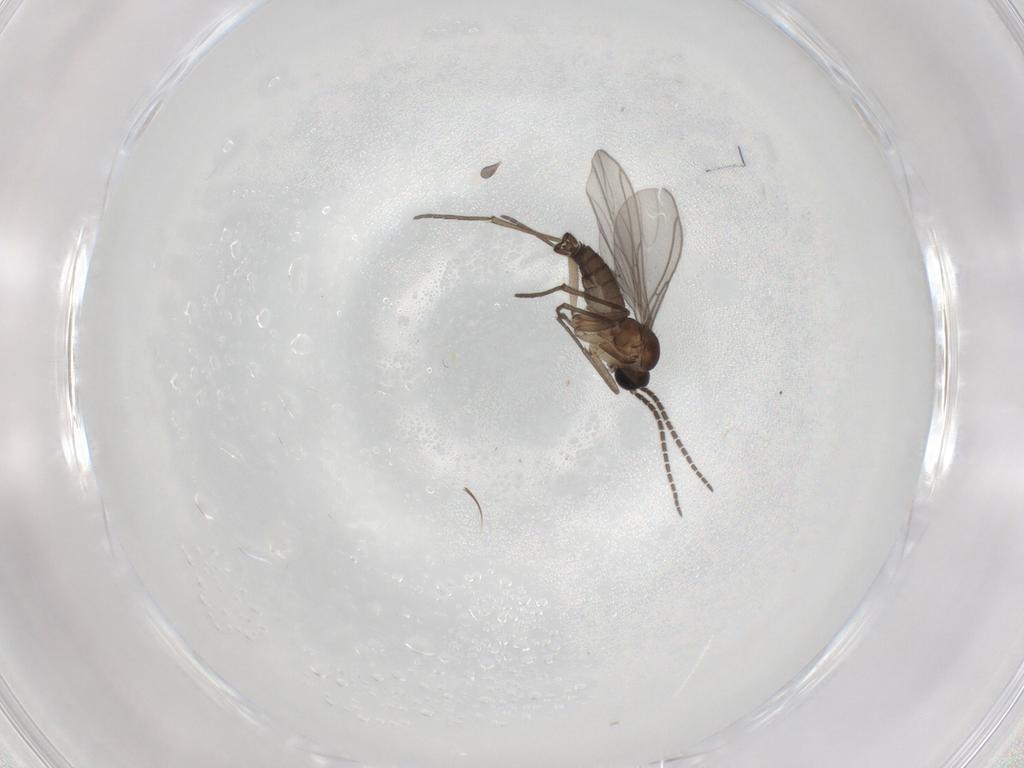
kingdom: Animalia
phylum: Arthropoda
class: Insecta
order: Diptera
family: Sciaridae
